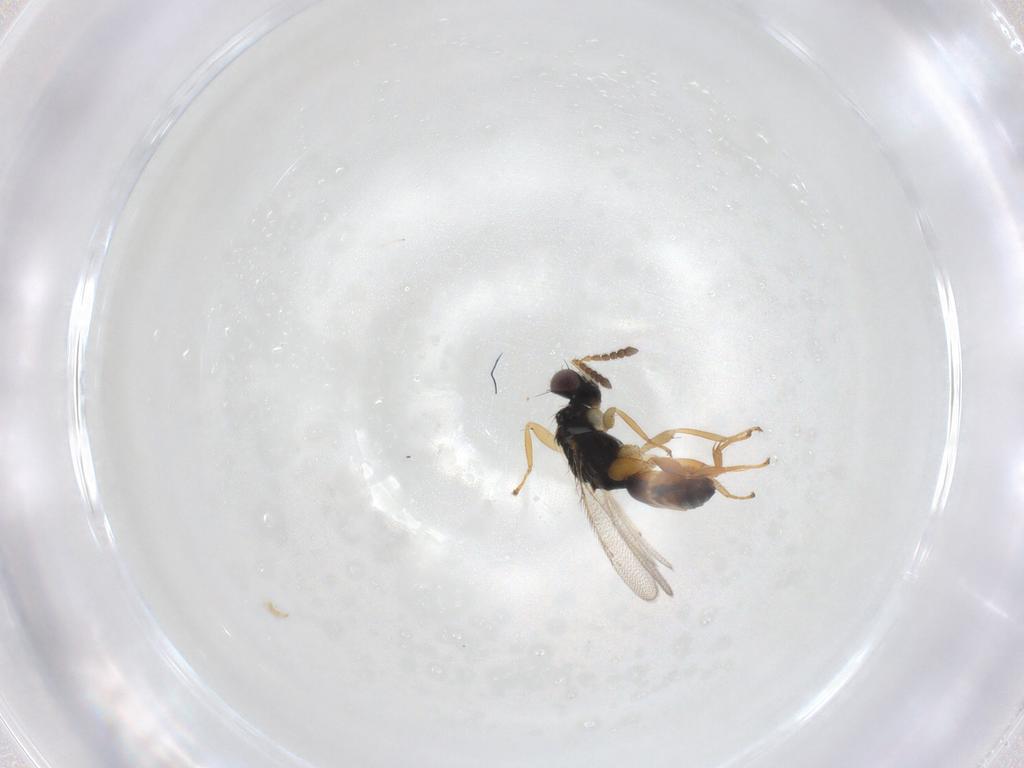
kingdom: Animalia
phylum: Arthropoda
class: Insecta
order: Hymenoptera
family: Eulophidae
